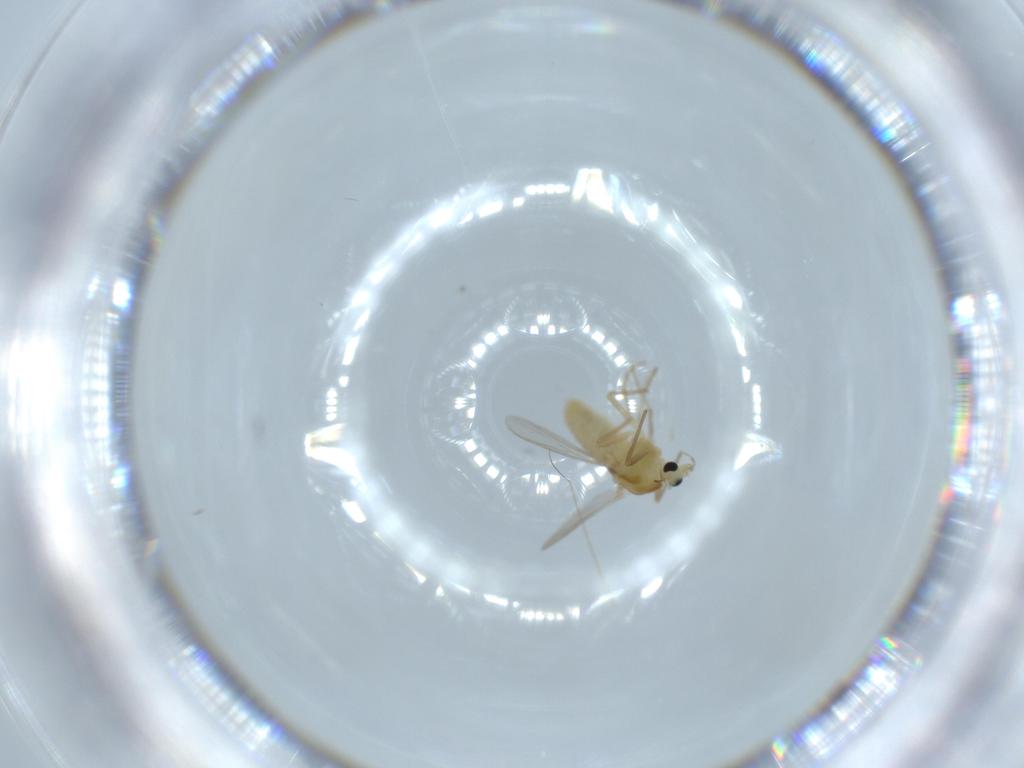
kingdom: Animalia
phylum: Arthropoda
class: Insecta
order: Diptera
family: Chironomidae
